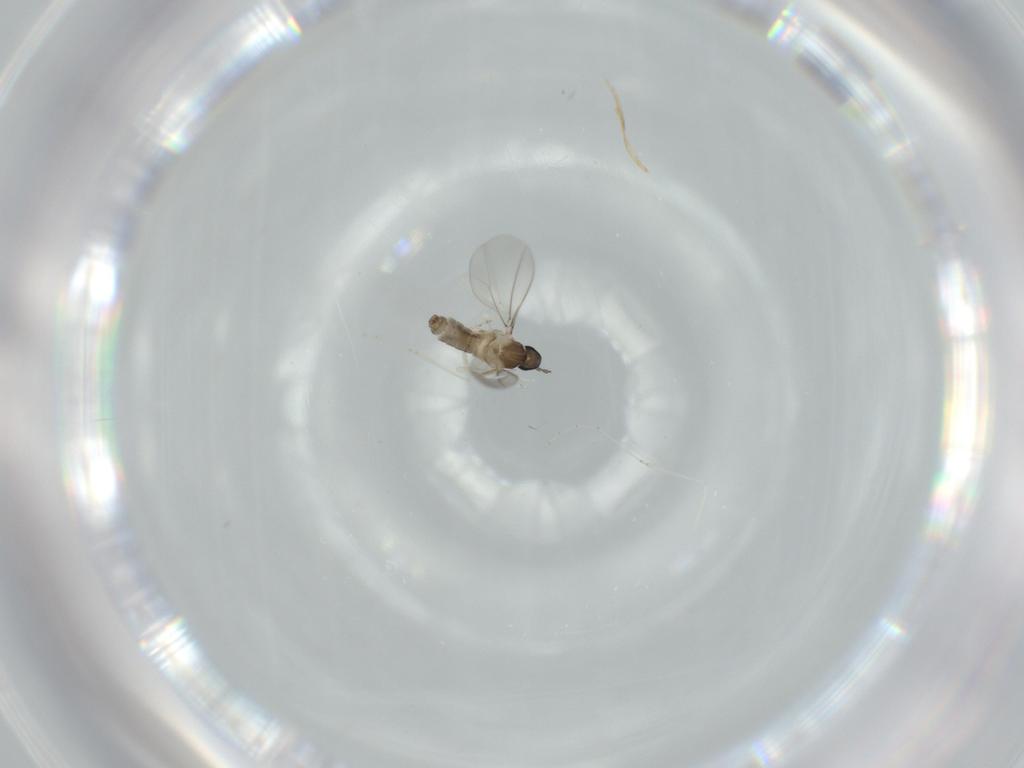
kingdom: Animalia
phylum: Arthropoda
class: Insecta
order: Diptera
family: Cecidomyiidae
